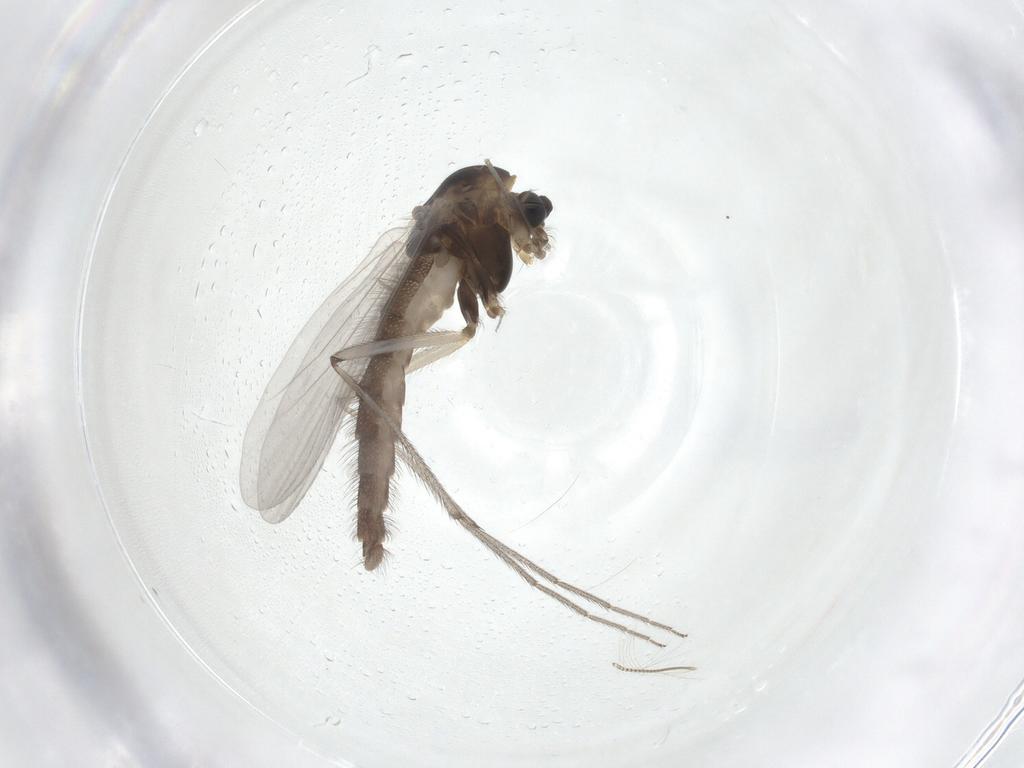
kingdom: Animalia
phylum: Arthropoda
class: Insecta
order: Diptera
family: Chironomidae
